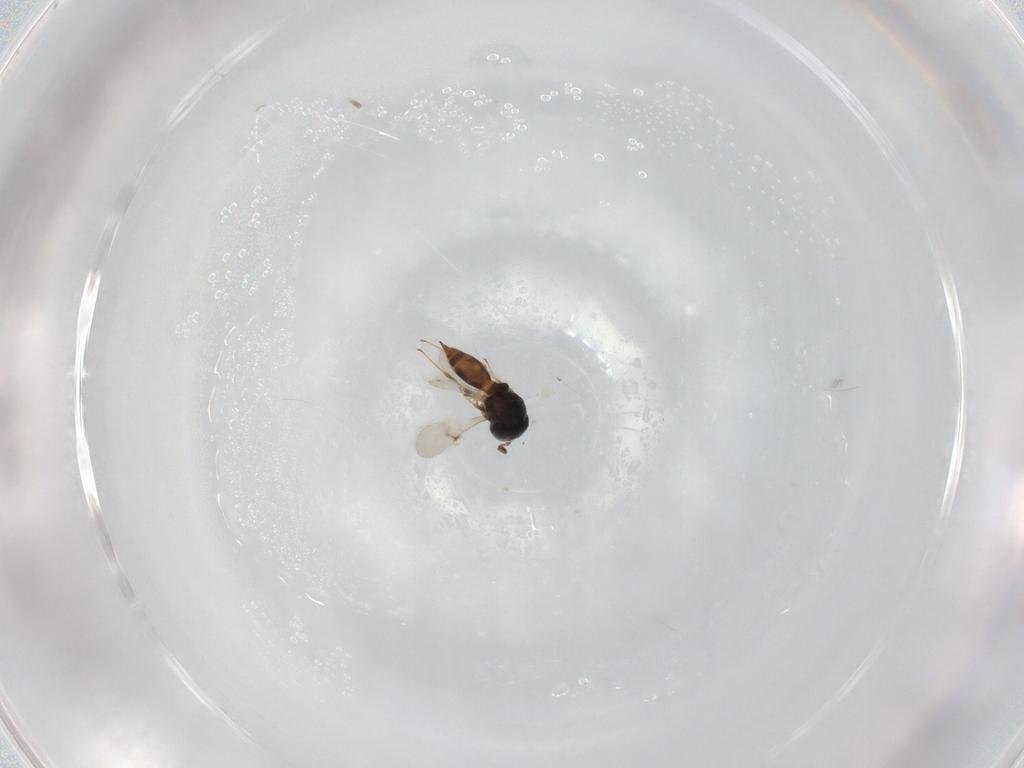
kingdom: Animalia
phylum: Arthropoda
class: Insecta
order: Hymenoptera
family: Scelionidae
